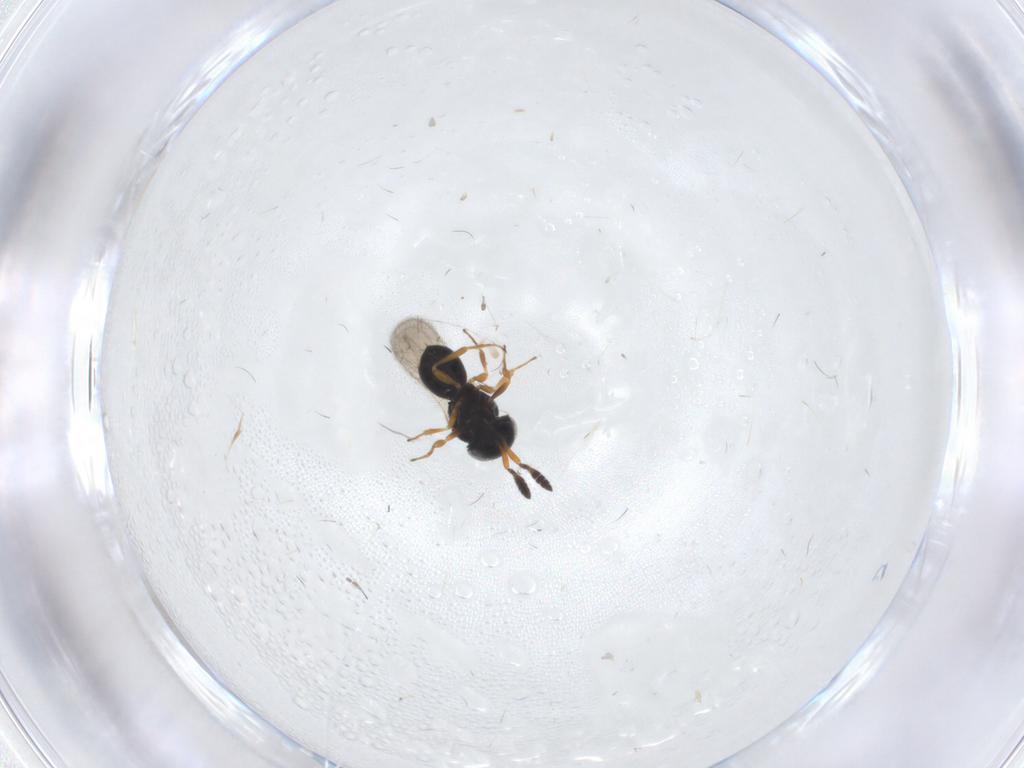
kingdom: Animalia
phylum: Arthropoda
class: Insecta
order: Hymenoptera
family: Scelionidae
